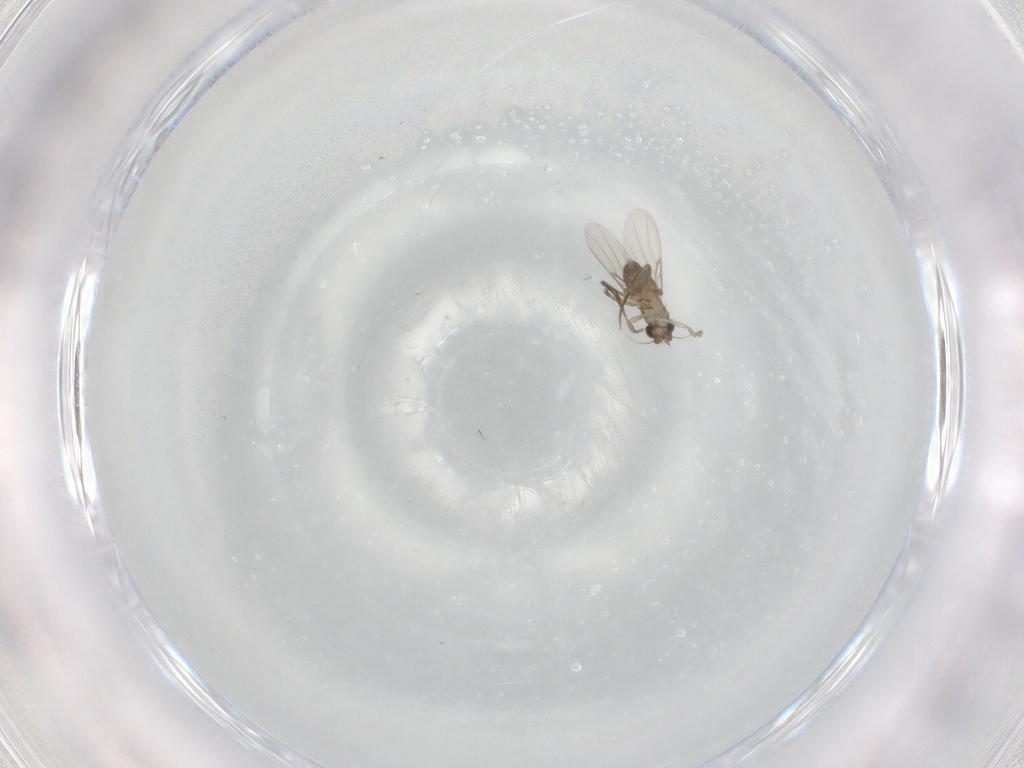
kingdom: Animalia
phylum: Arthropoda
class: Insecta
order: Diptera
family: Phoridae
